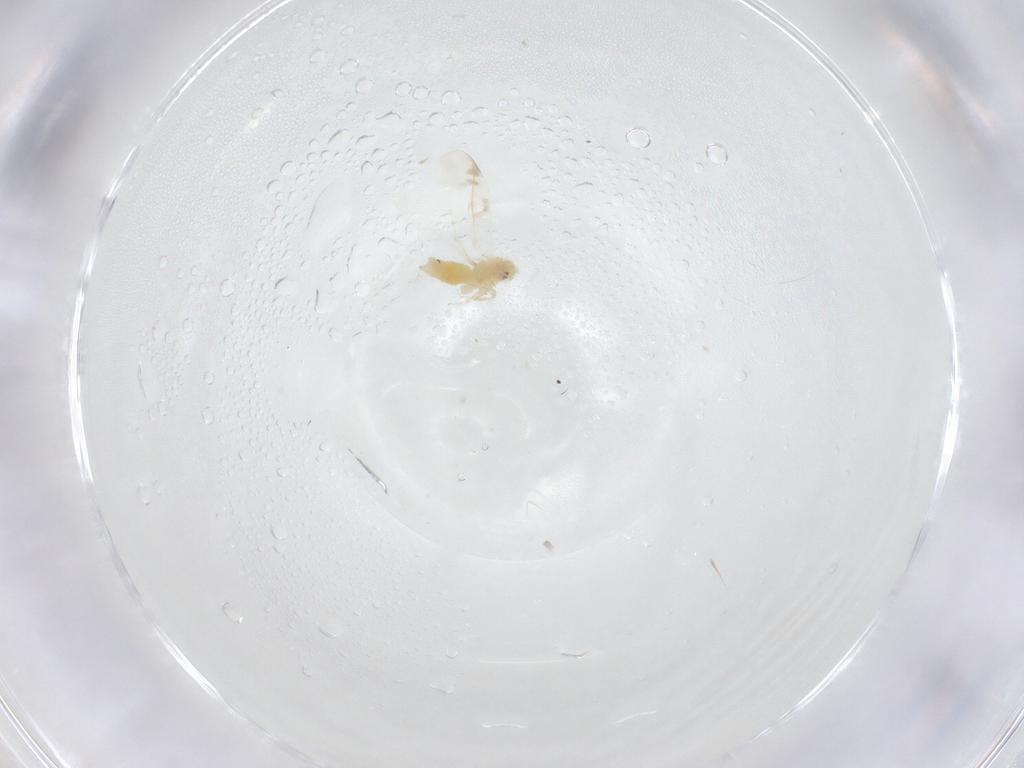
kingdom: Animalia
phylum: Arthropoda
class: Insecta
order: Hemiptera
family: Aleyrodidae
